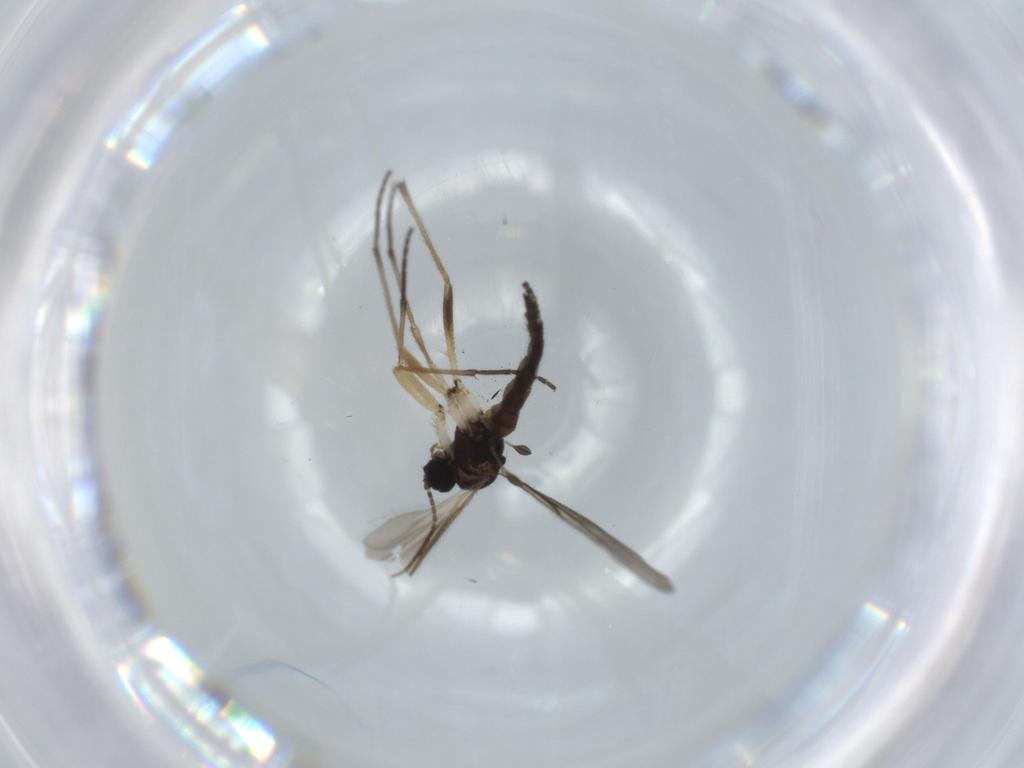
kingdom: Animalia
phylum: Arthropoda
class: Insecta
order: Diptera
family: Sciaridae
